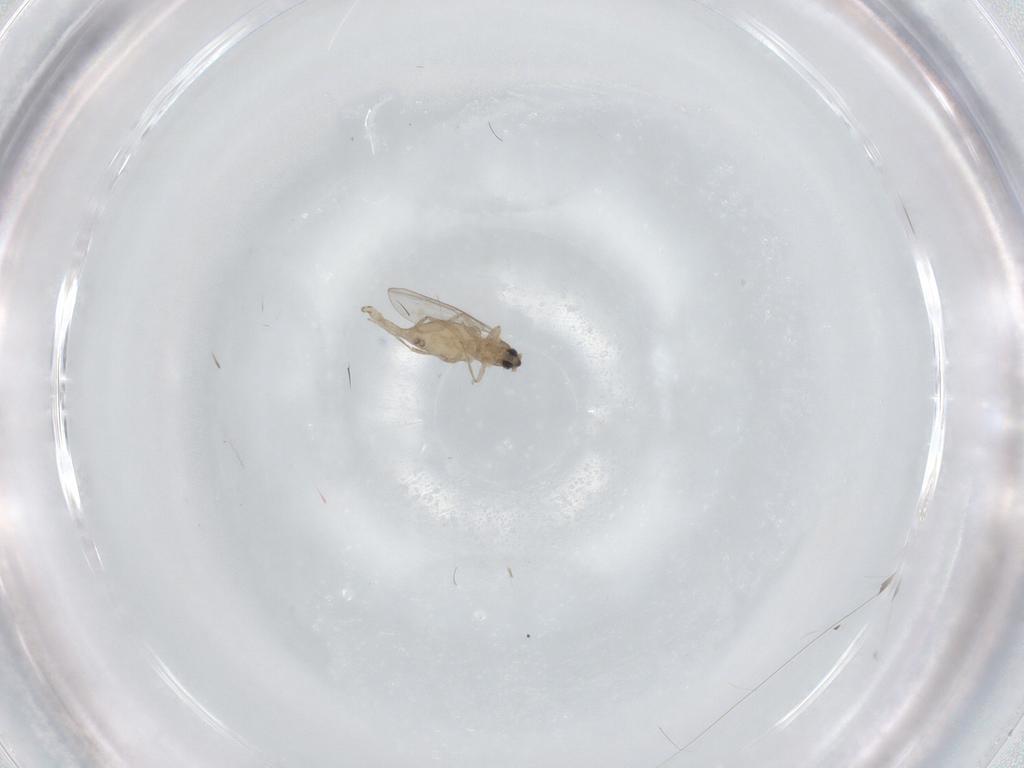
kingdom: Animalia
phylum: Arthropoda
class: Insecta
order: Diptera
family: Cecidomyiidae
